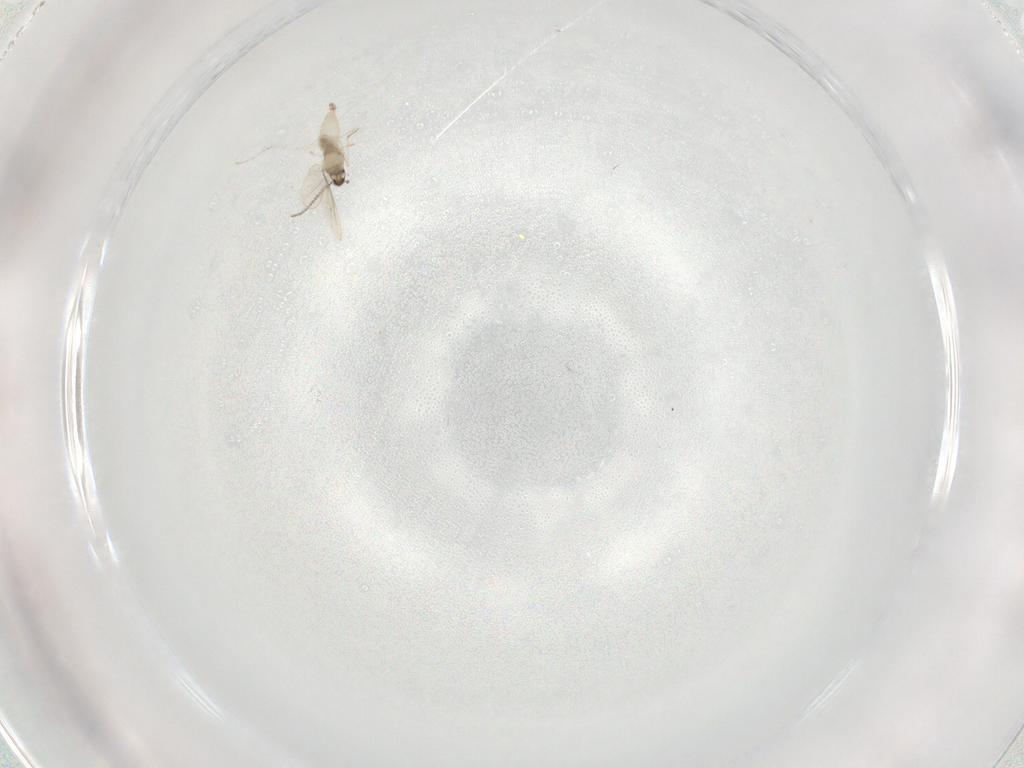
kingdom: Animalia
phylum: Arthropoda
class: Insecta
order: Diptera
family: Cecidomyiidae
